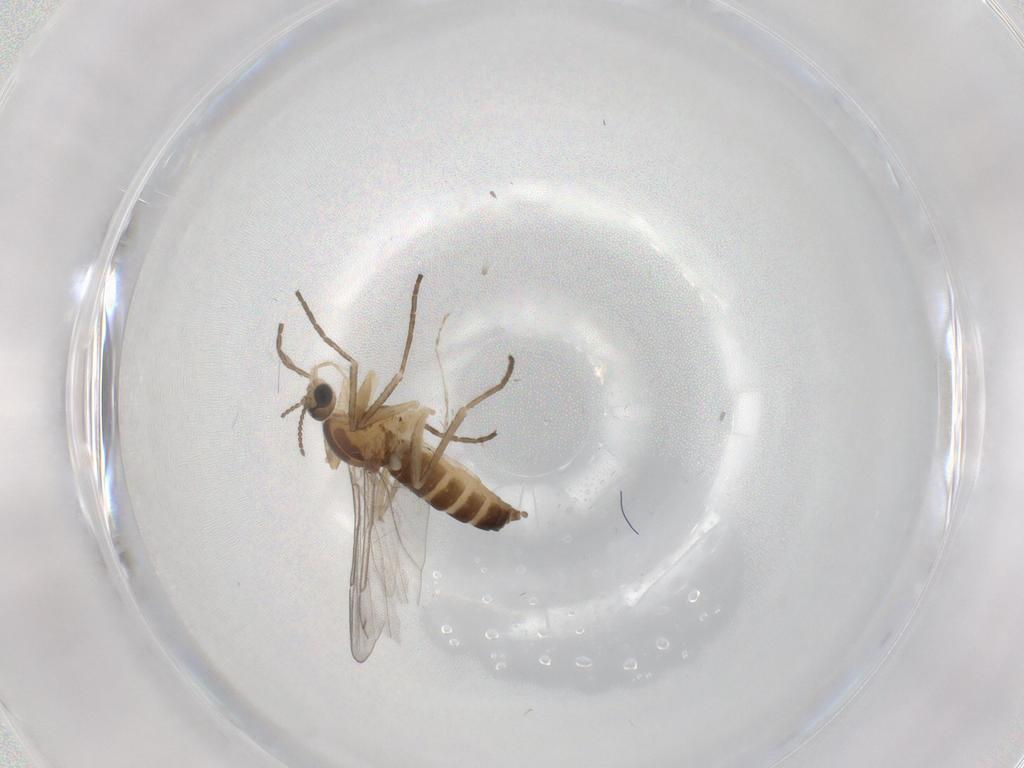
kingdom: Animalia
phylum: Arthropoda
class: Insecta
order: Diptera
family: Cecidomyiidae
